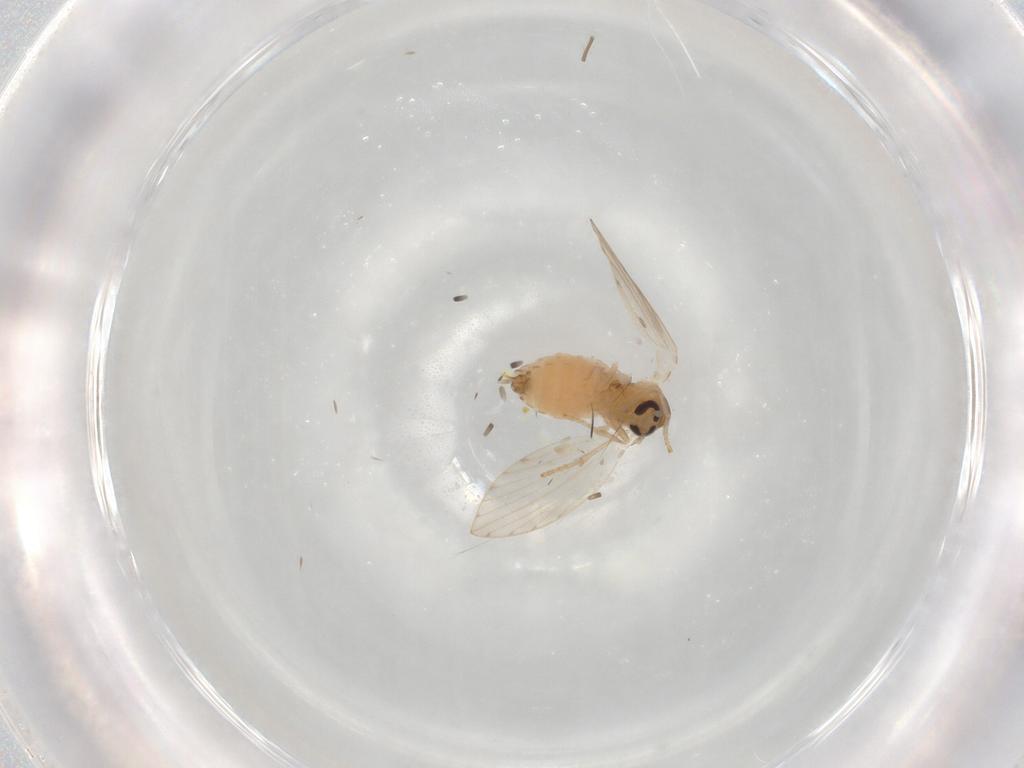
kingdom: Animalia
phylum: Arthropoda
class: Insecta
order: Diptera
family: Psychodidae
